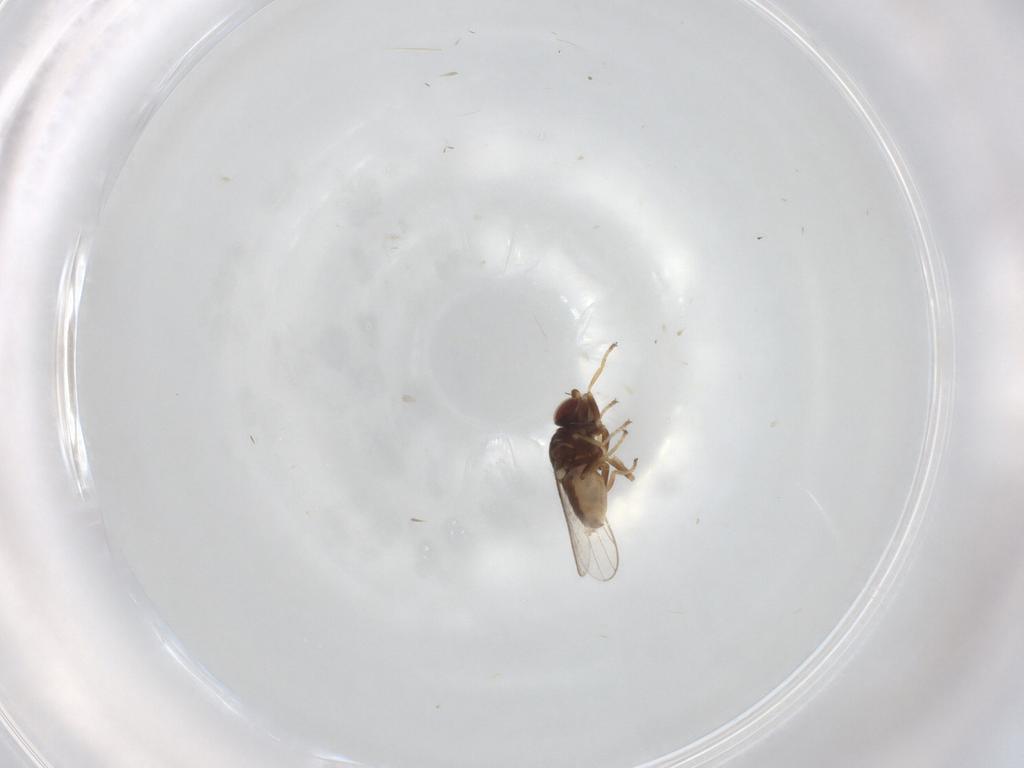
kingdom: Animalia
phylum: Arthropoda
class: Insecta
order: Diptera
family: Chloropidae
